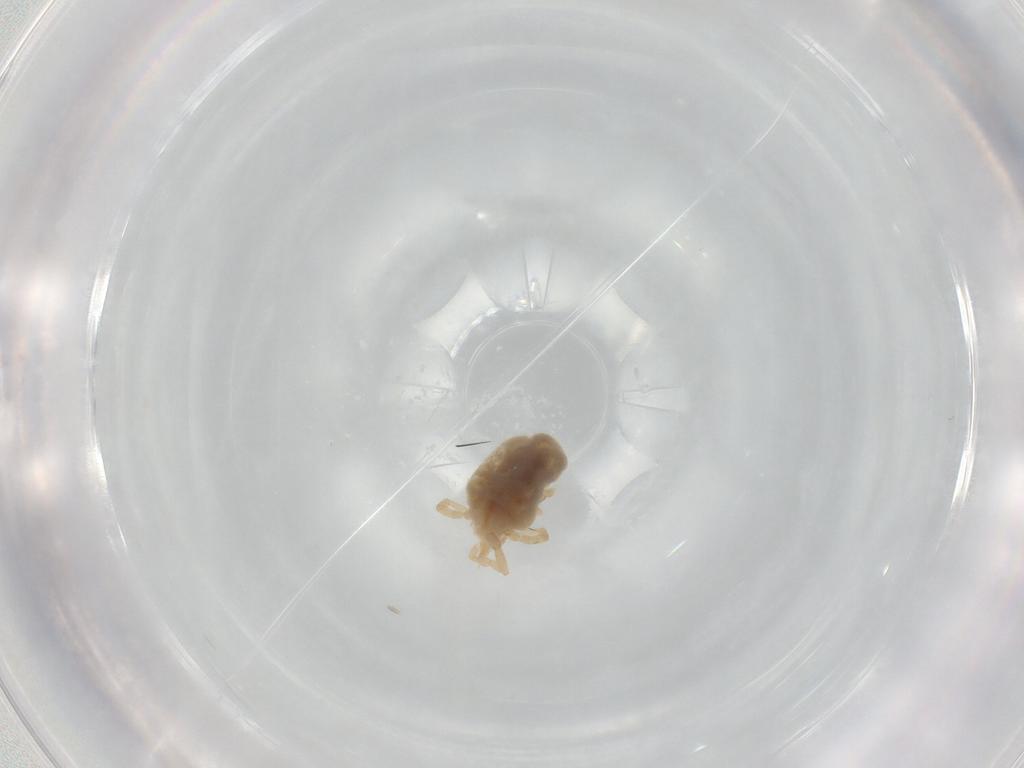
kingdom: Animalia
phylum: Arthropoda
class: Arachnida
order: Trombidiformes
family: Erythraeidae
